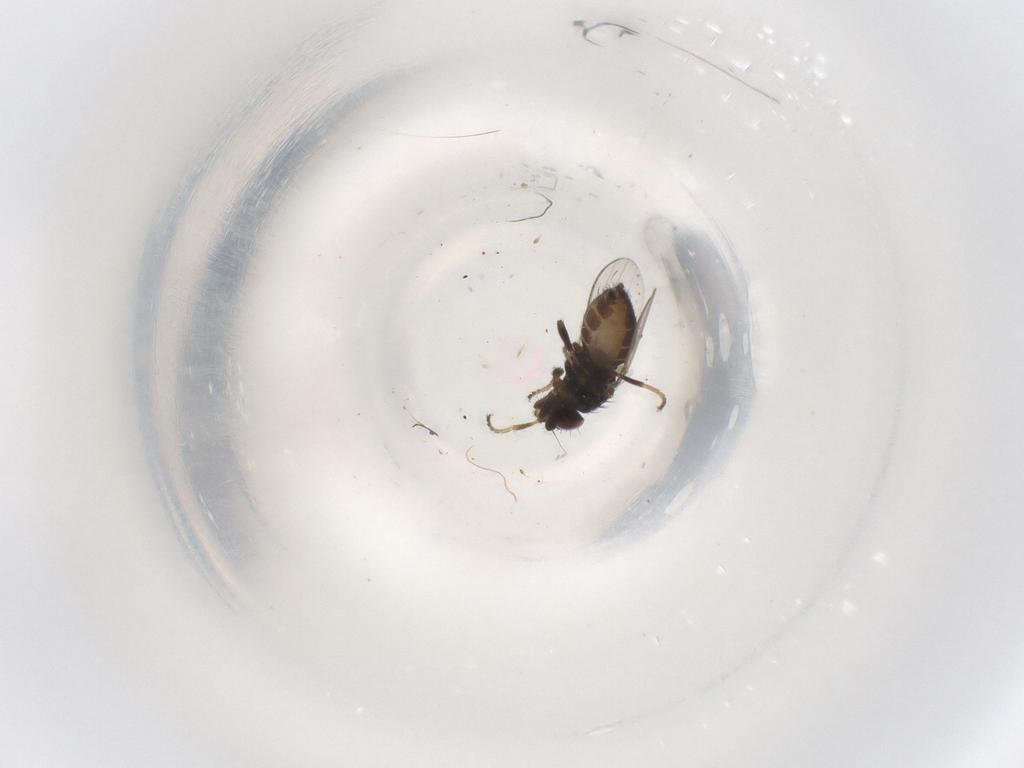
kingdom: Animalia
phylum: Arthropoda
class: Insecta
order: Diptera
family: Milichiidae
